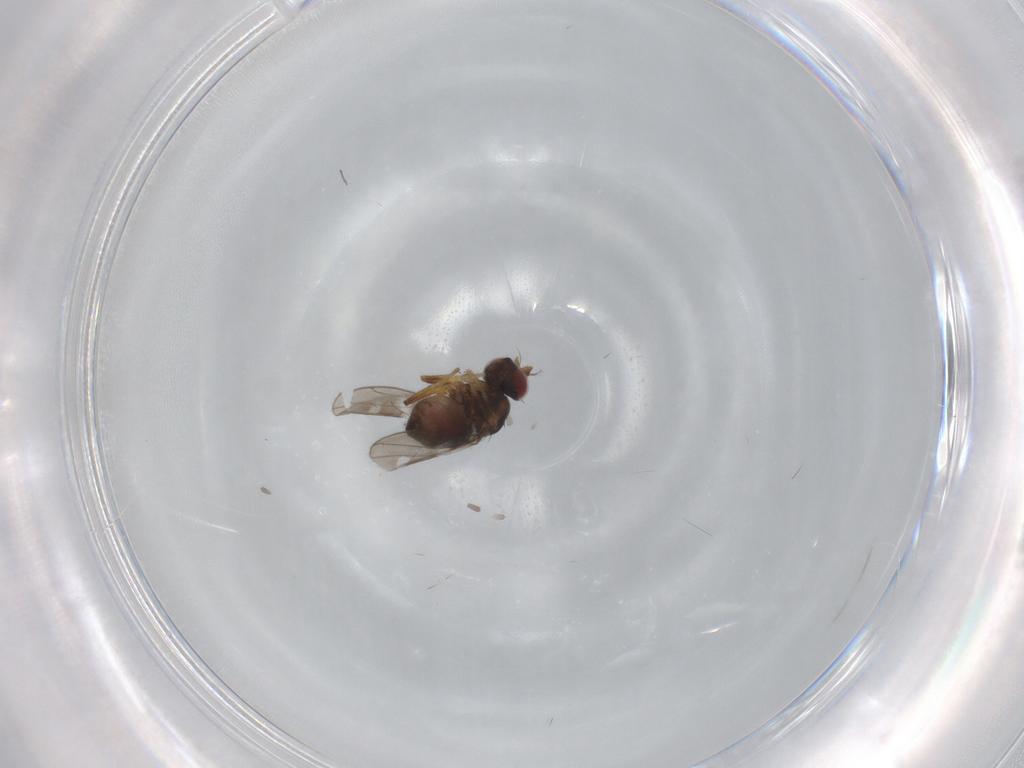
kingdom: Animalia
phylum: Arthropoda
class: Insecta
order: Diptera
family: Ephydridae
